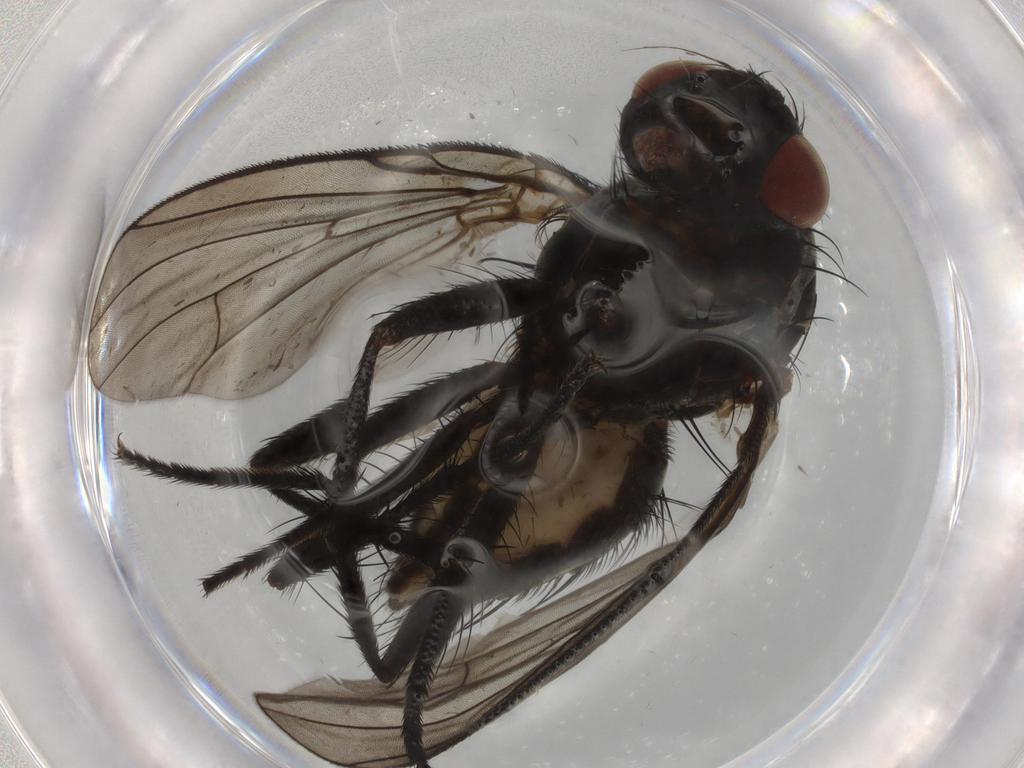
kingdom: Animalia
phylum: Arthropoda
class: Insecta
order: Diptera
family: Anthomyiidae
